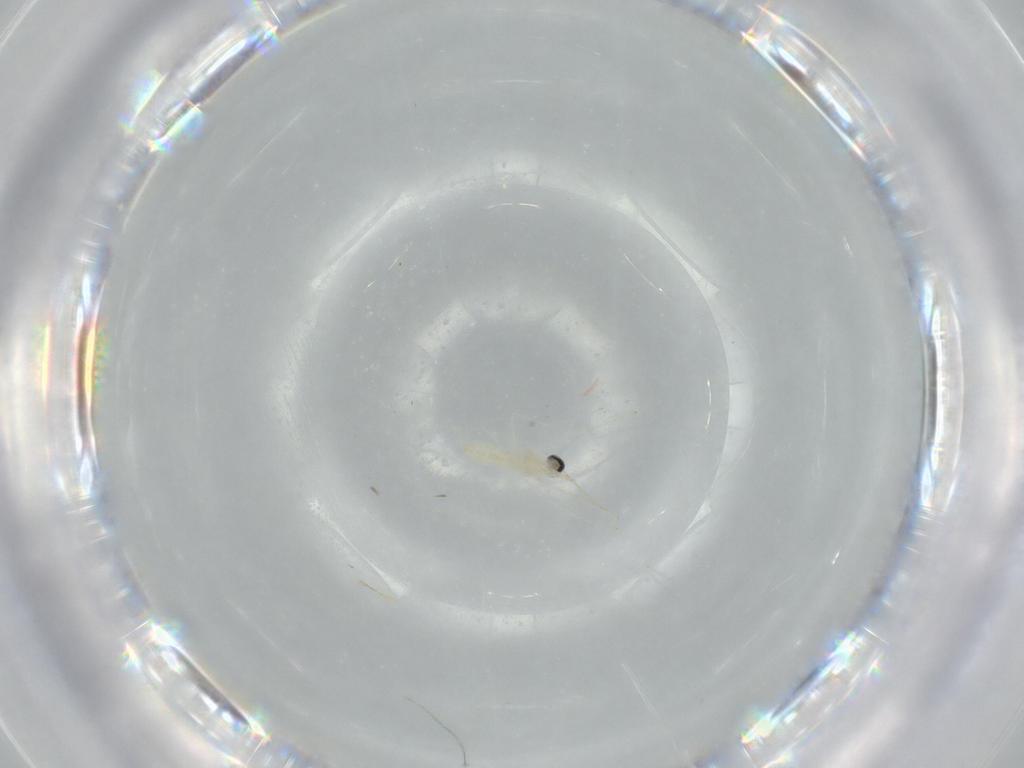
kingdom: Animalia
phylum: Arthropoda
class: Insecta
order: Diptera
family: Cecidomyiidae
